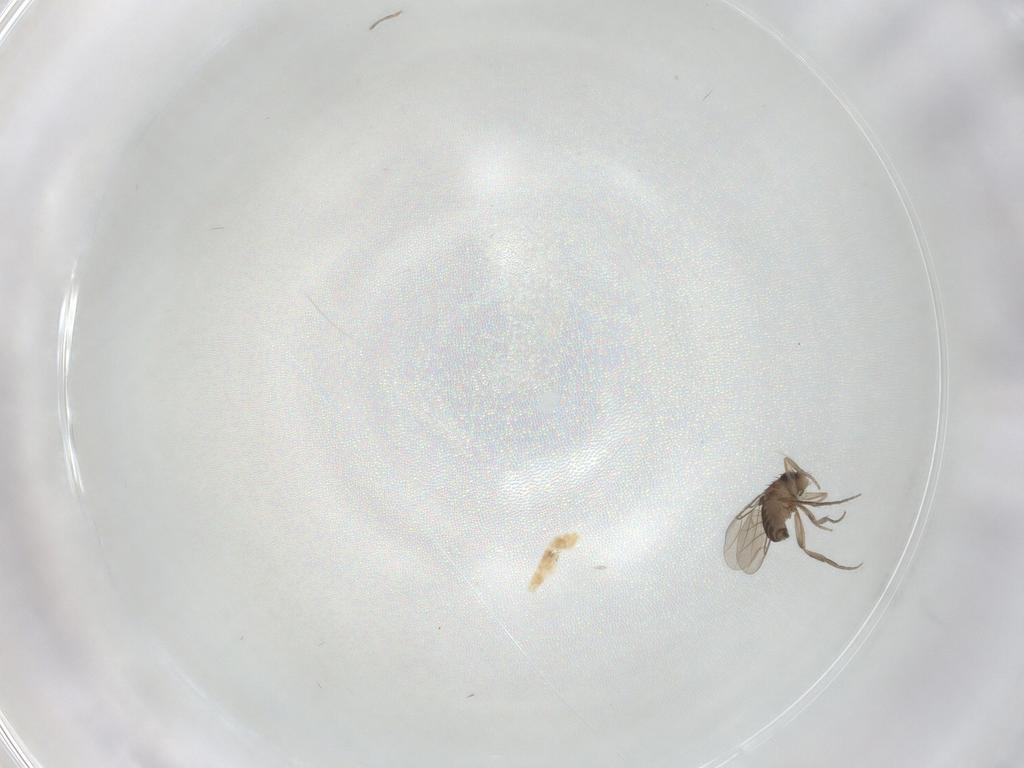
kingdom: Animalia
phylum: Arthropoda
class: Insecta
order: Diptera
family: Phoridae
